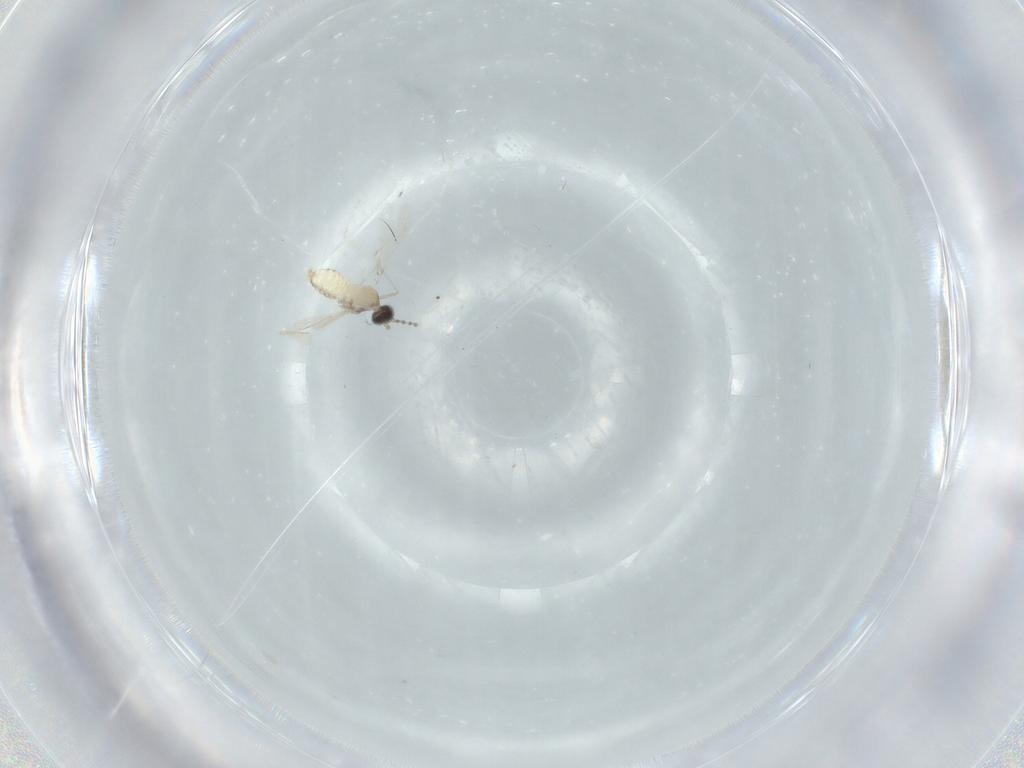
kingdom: Animalia
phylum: Arthropoda
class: Insecta
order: Diptera
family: Cecidomyiidae
